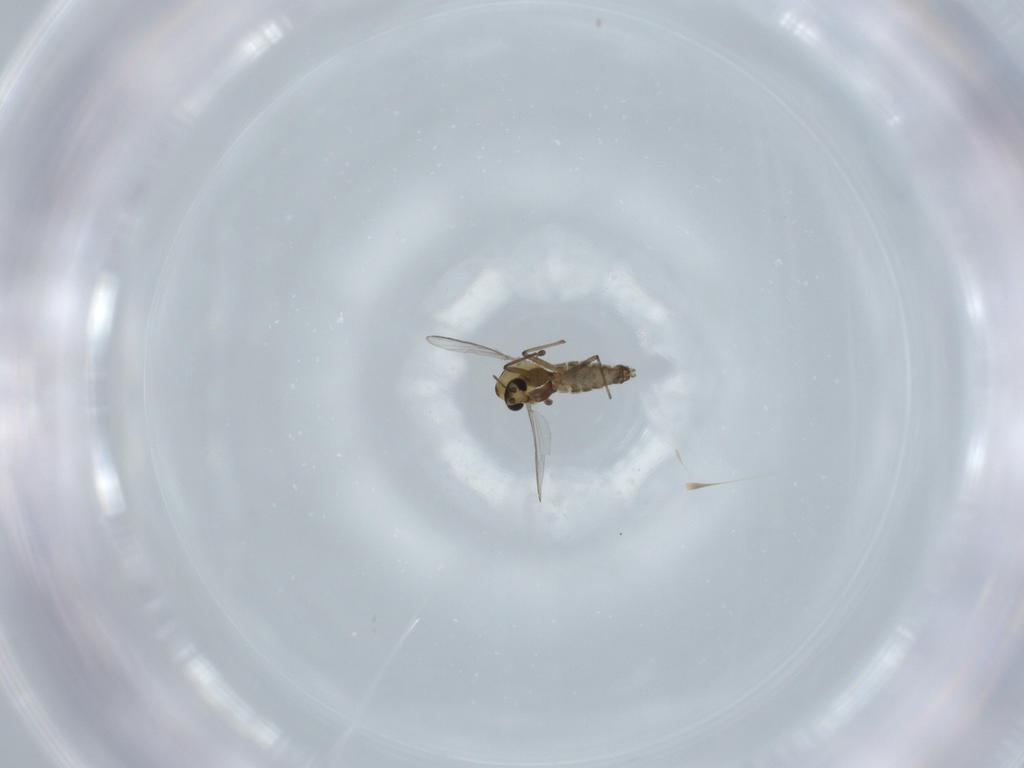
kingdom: Animalia
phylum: Arthropoda
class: Insecta
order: Diptera
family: Chironomidae
